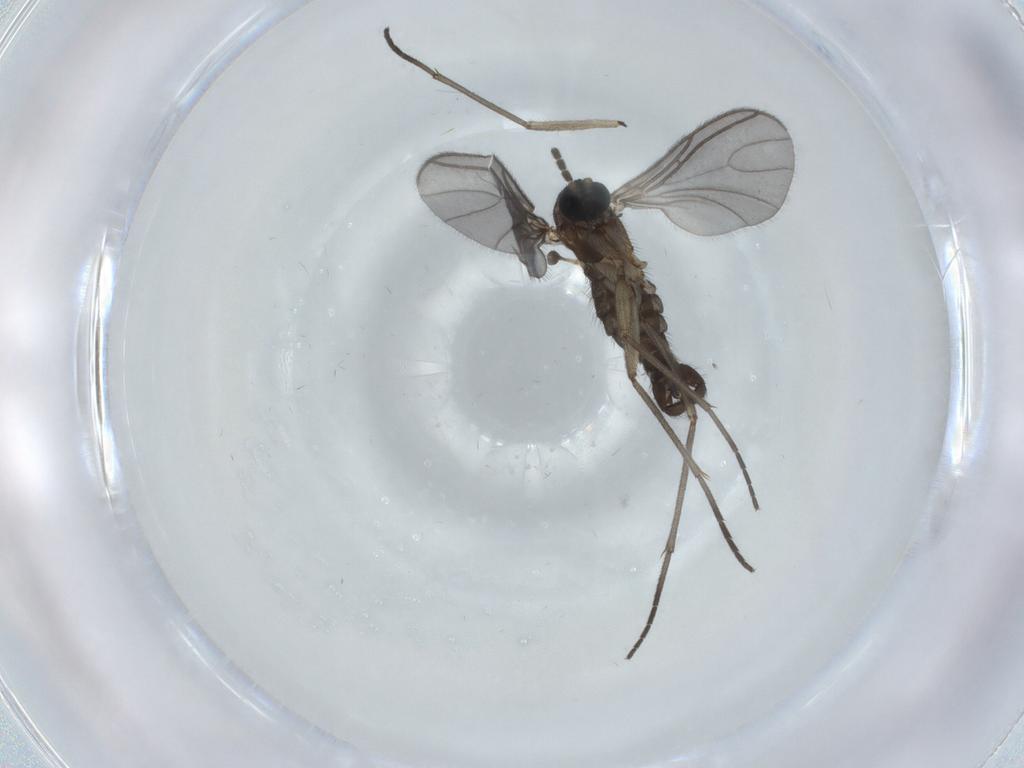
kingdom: Animalia
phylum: Arthropoda
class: Insecta
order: Diptera
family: Sciaridae
